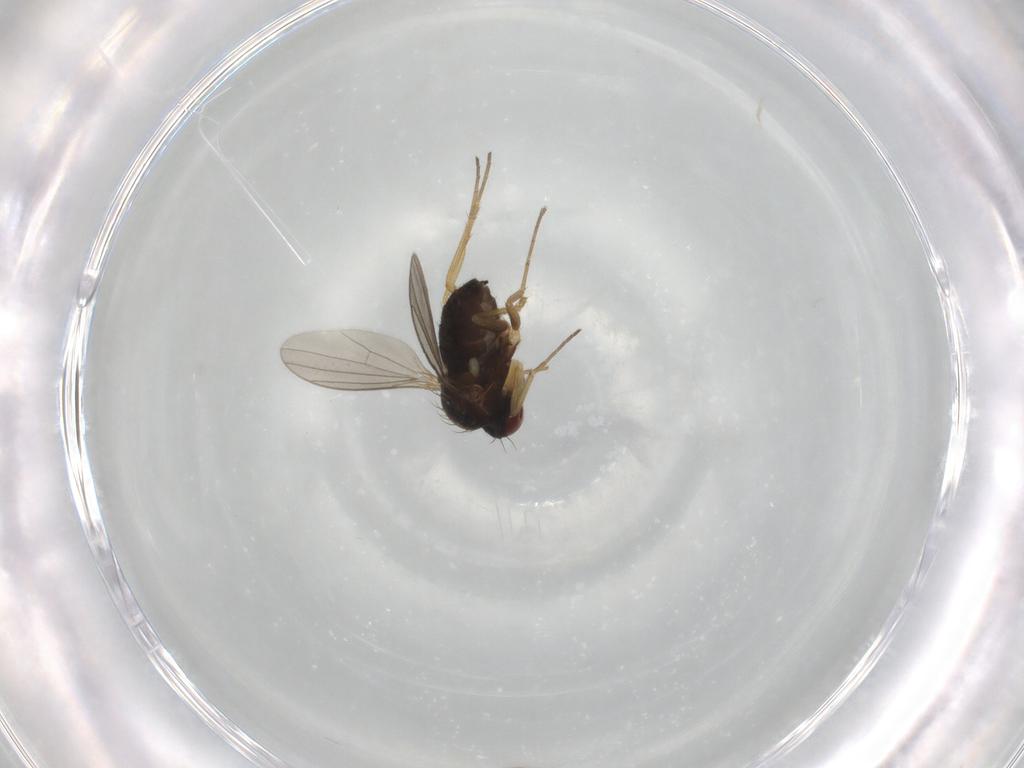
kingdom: Animalia
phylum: Arthropoda
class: Insecta
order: Diptera
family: Dolichopodidae
